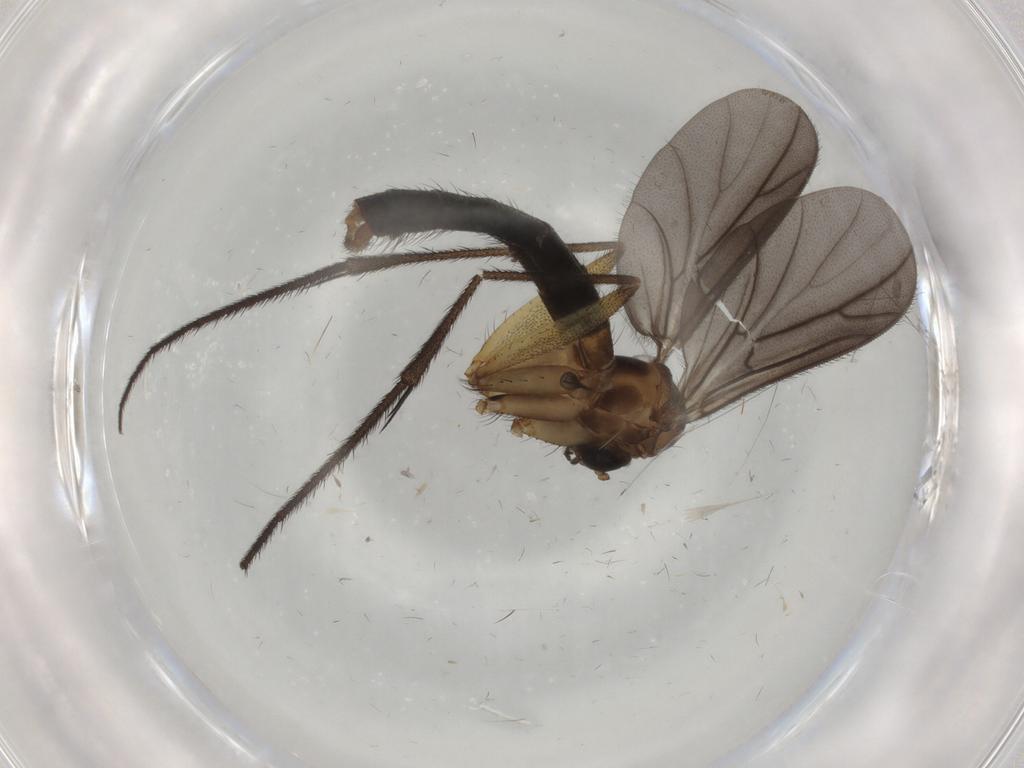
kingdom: Animalia
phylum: Arthropoda
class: Insecta
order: Diptera
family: Ditomyiidae
